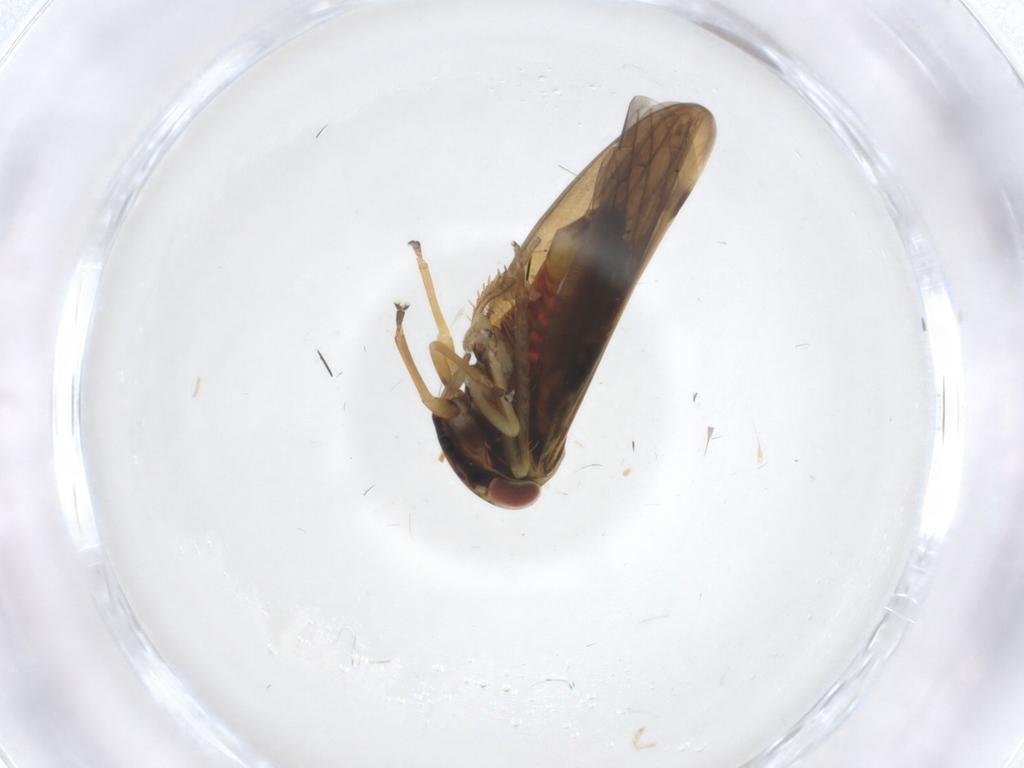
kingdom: Animalia
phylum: Arthropoda
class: Insecta
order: Hemiptera
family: Cicadellidae
